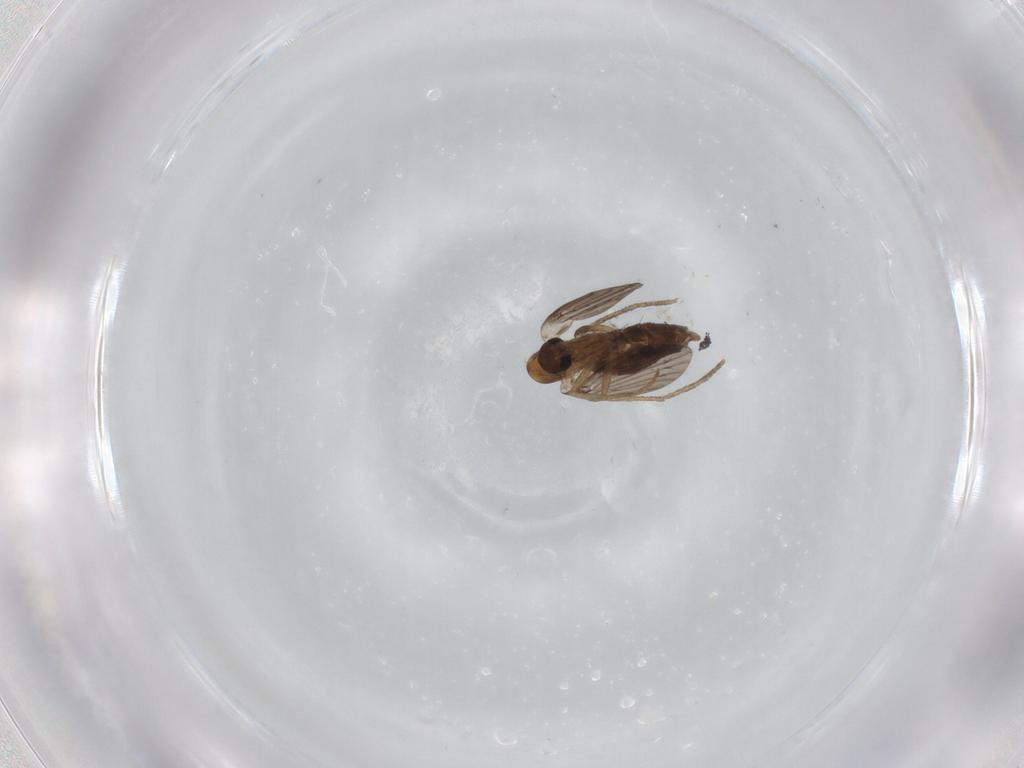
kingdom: Animalia
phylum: Arthropoda
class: Insecta
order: Diptera
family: Psychodidae
